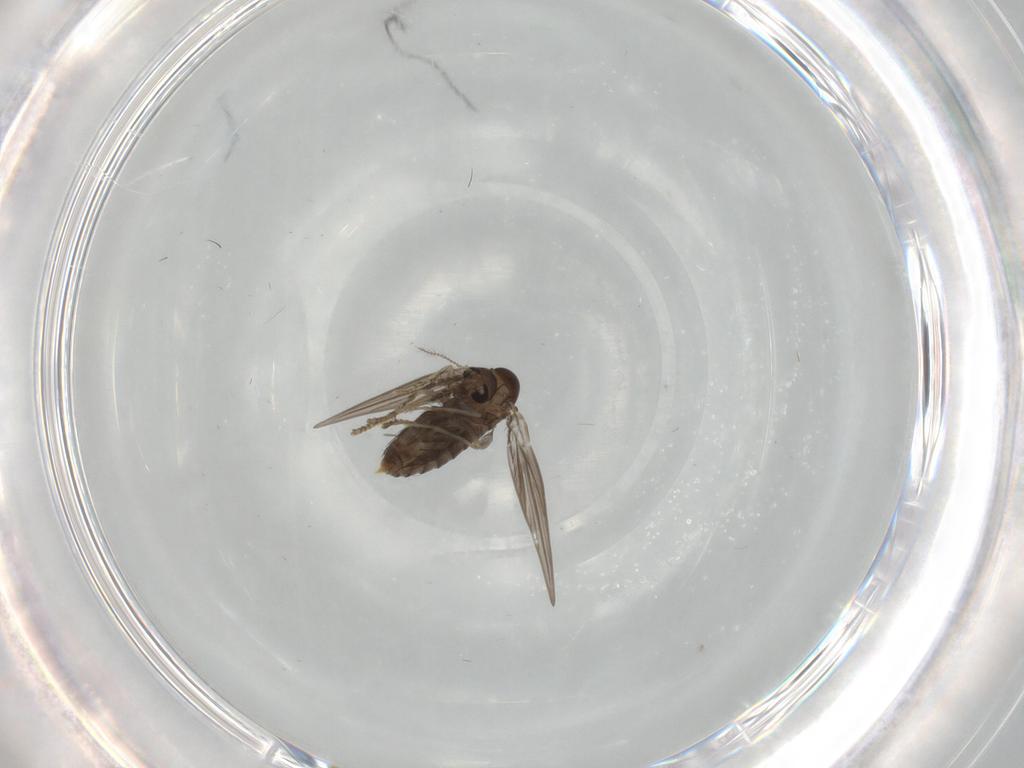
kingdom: Animalia
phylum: Arthropoda
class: Insecta
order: Diptera
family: Psychodidae
